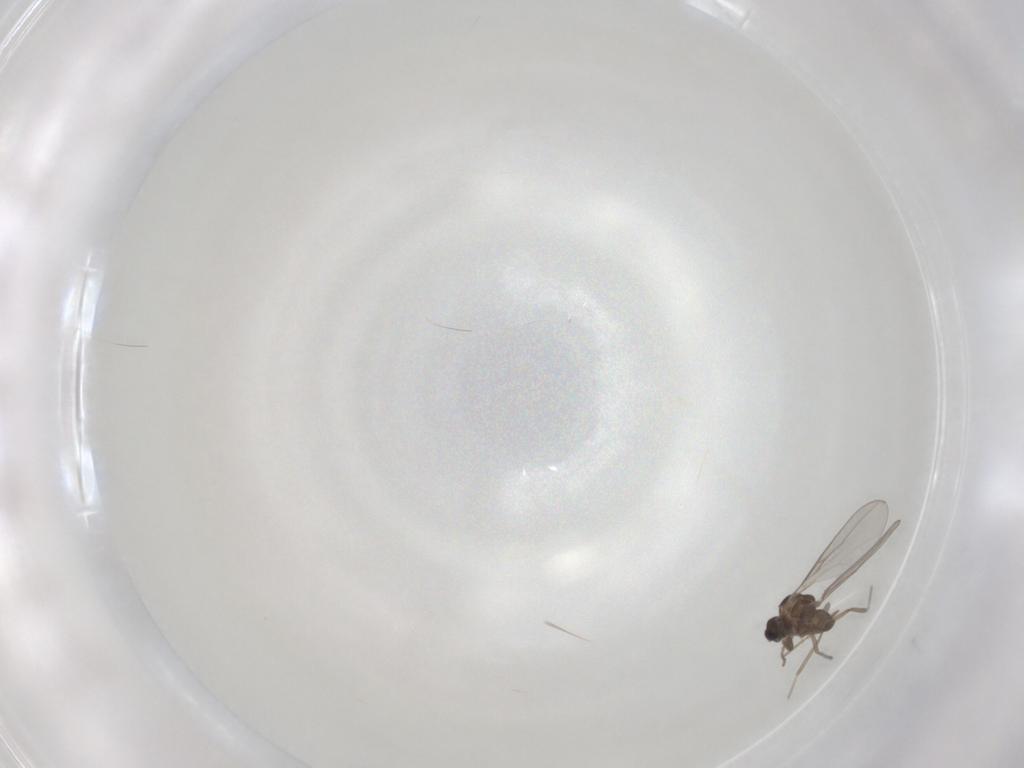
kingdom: Animalia
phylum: Arthropoda
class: Insecta
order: Diptera
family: Cecidomyiidae
